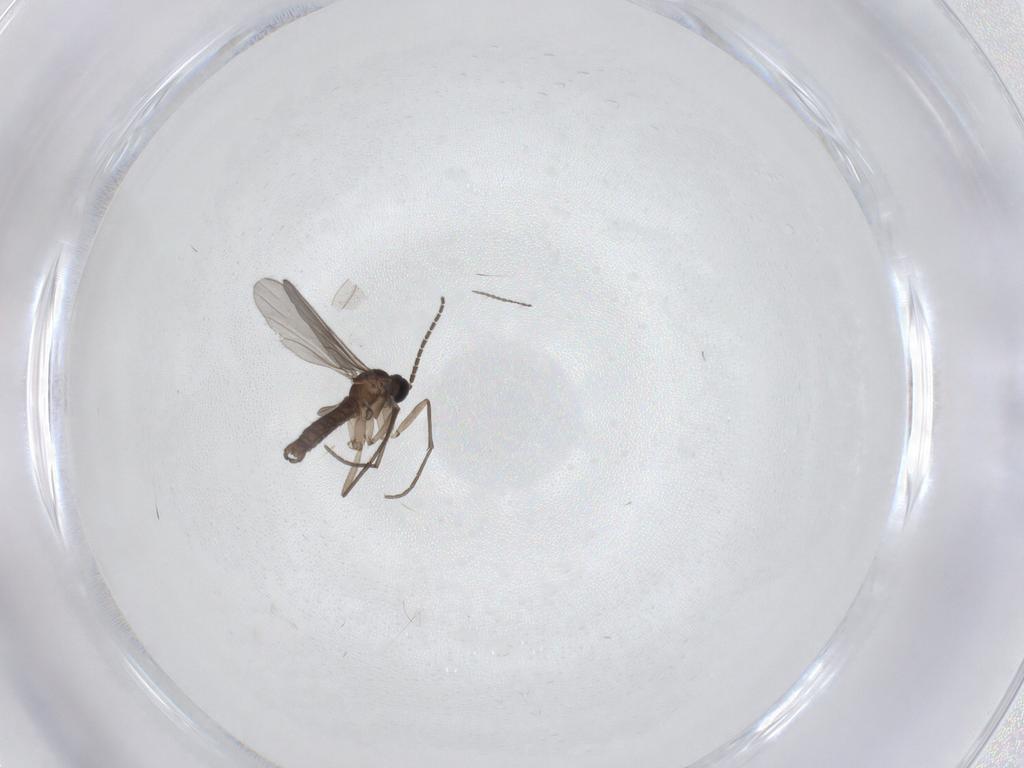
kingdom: Animalia
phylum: Arthropoda
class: Insecta
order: Diptera
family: Sciaridae
